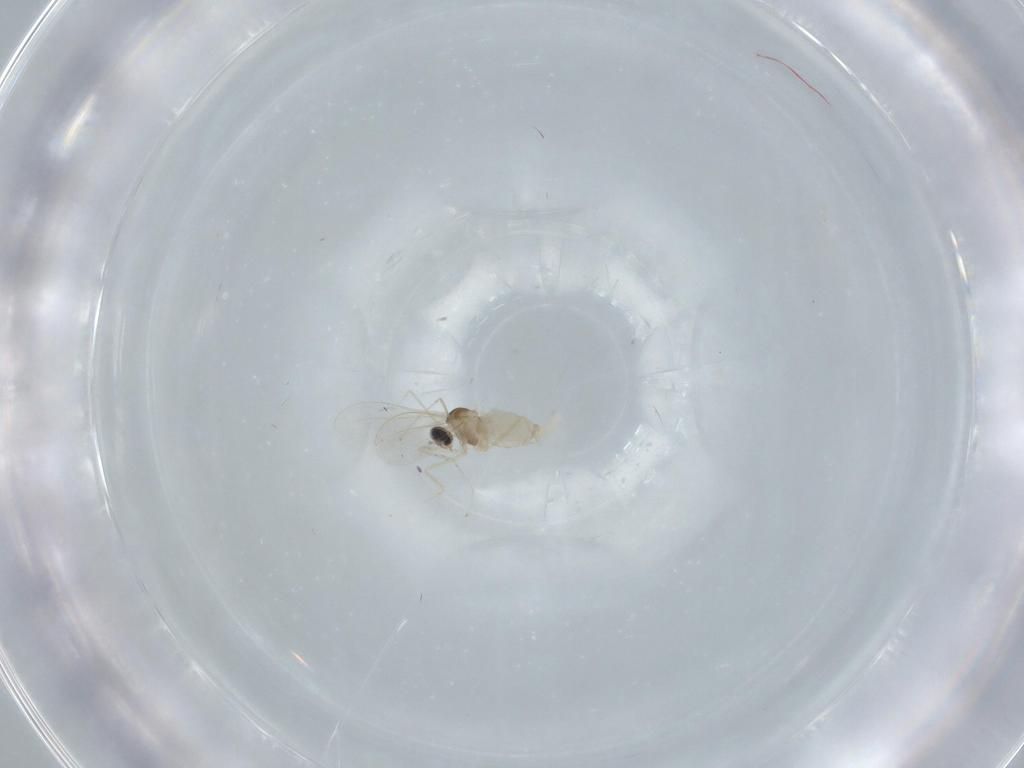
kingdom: Animalia
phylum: Arthropoda
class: Insecta
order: Diptera
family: Cecidomyiidae
